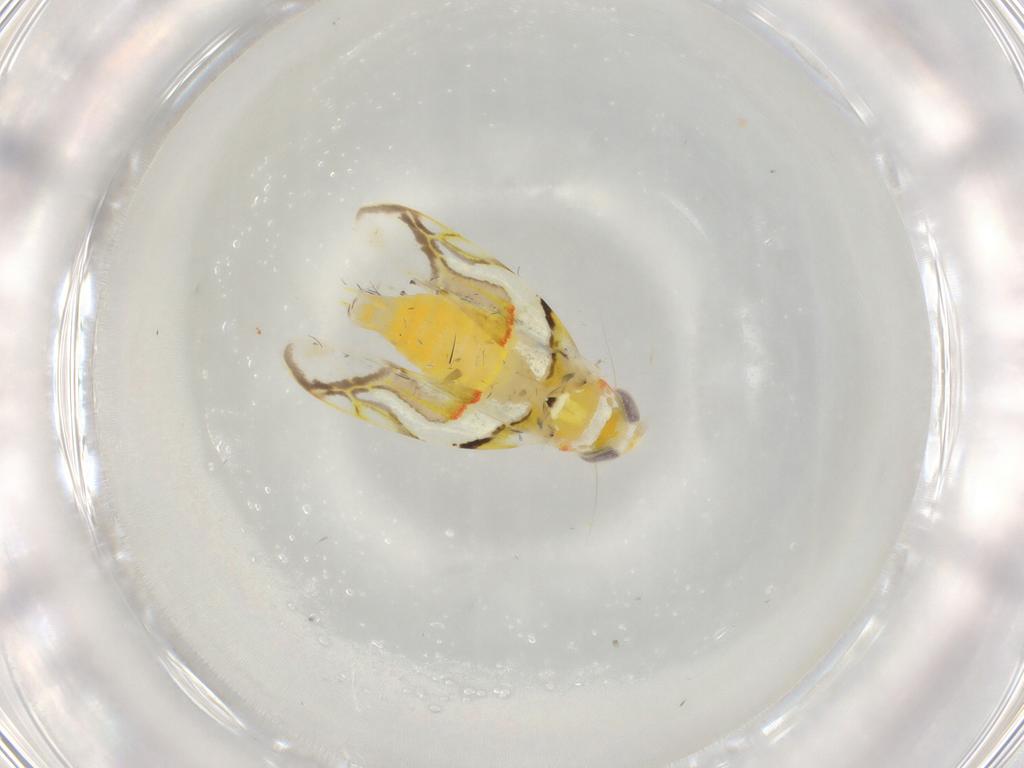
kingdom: Animalia
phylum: Arthropoda
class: Insecta
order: Hemiptera
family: Cicadellidae
